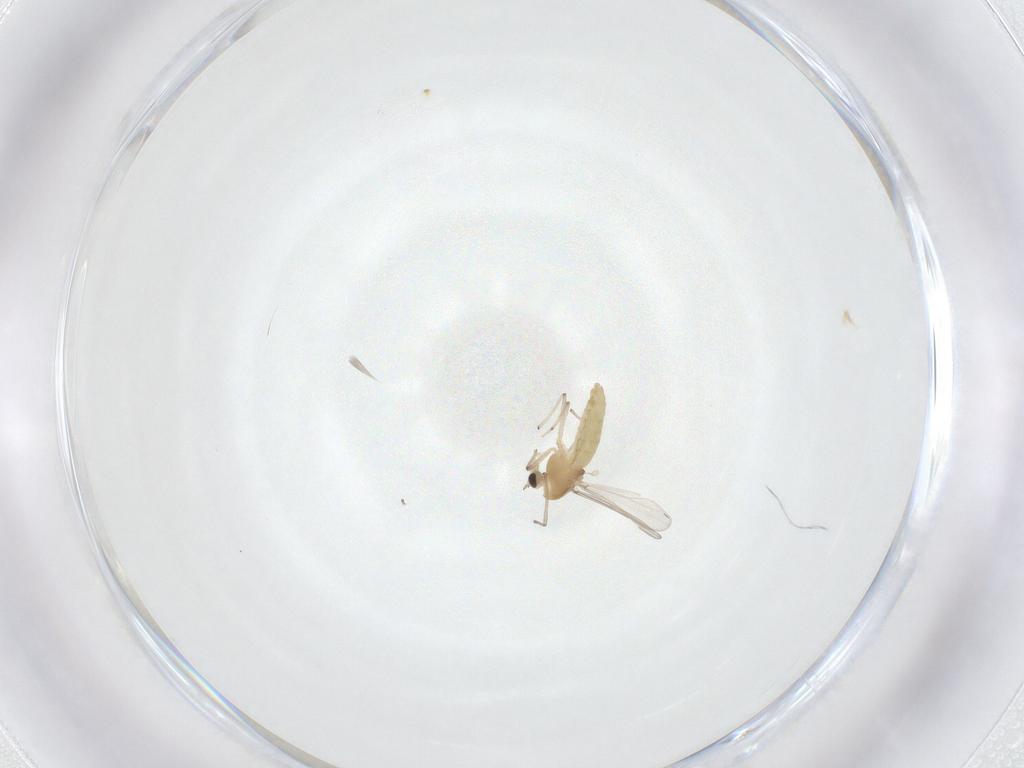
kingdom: Animalia
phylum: Arthropoda
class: Insecta
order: Diptera
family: Chironomidae
